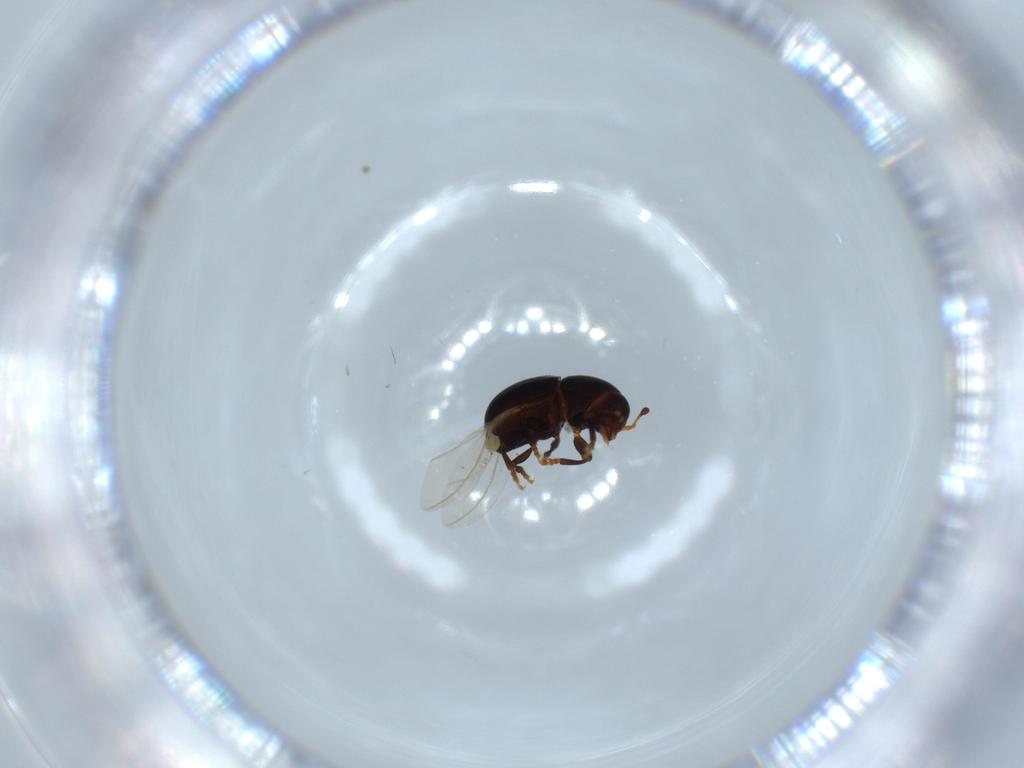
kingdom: Animalia
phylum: Arthropoda
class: Insecta
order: Coleoptera
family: Anthribidae
